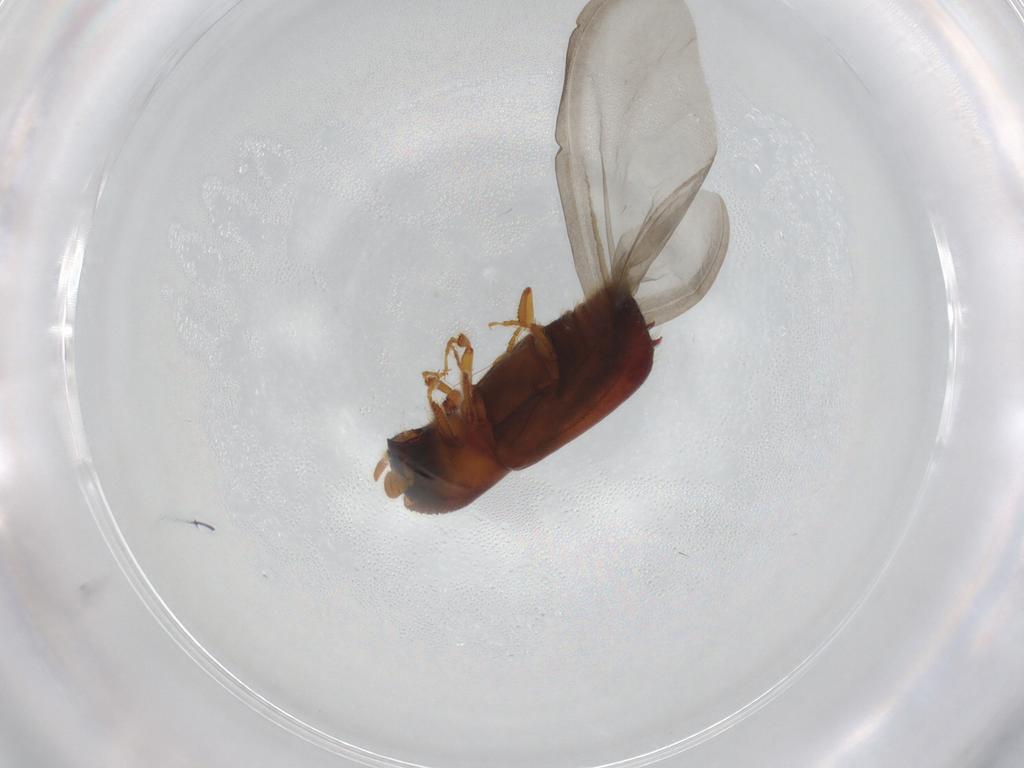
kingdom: Animalia
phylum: Arthropoda
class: Insecta
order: Coleoptera
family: Curculionidae
